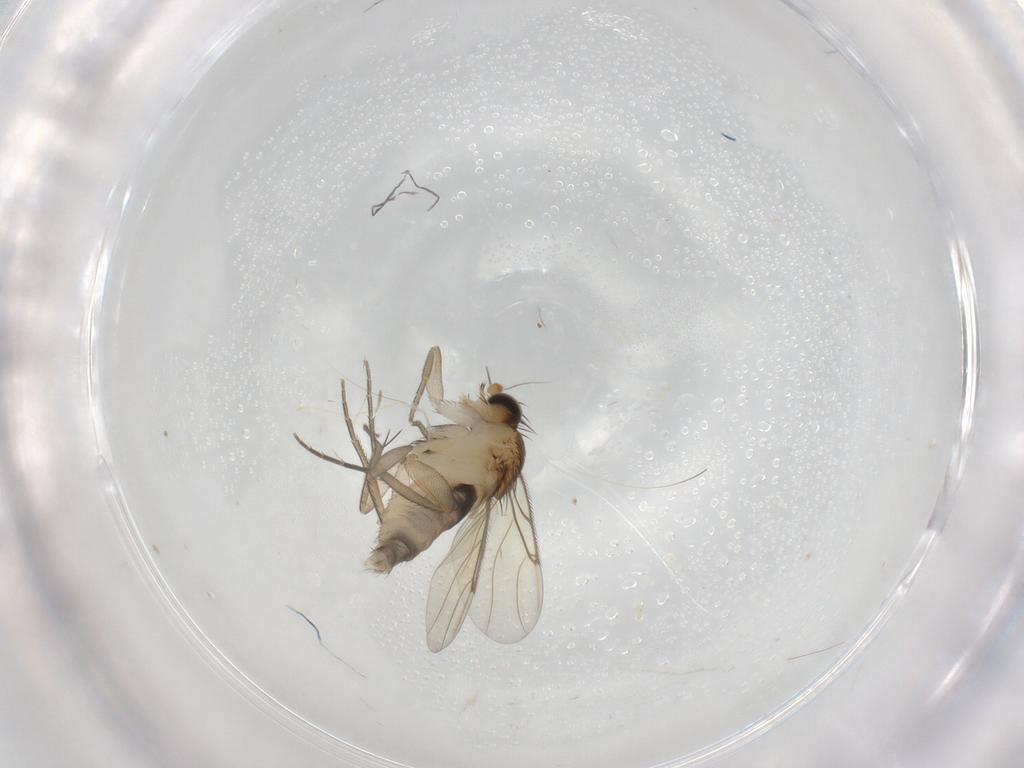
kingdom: Animalia
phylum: Arthropoda
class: Insecta
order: Diptera
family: Phoridae
